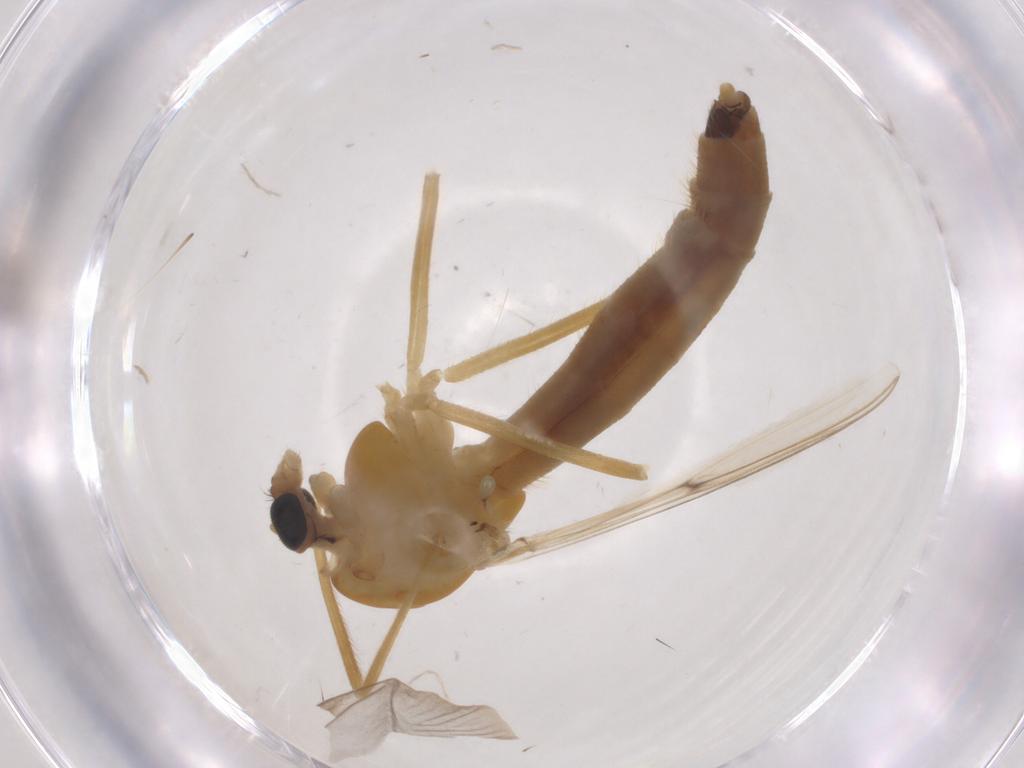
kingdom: Animalia
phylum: Arthropoda
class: Insecta
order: Diptera
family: Chironomidae
